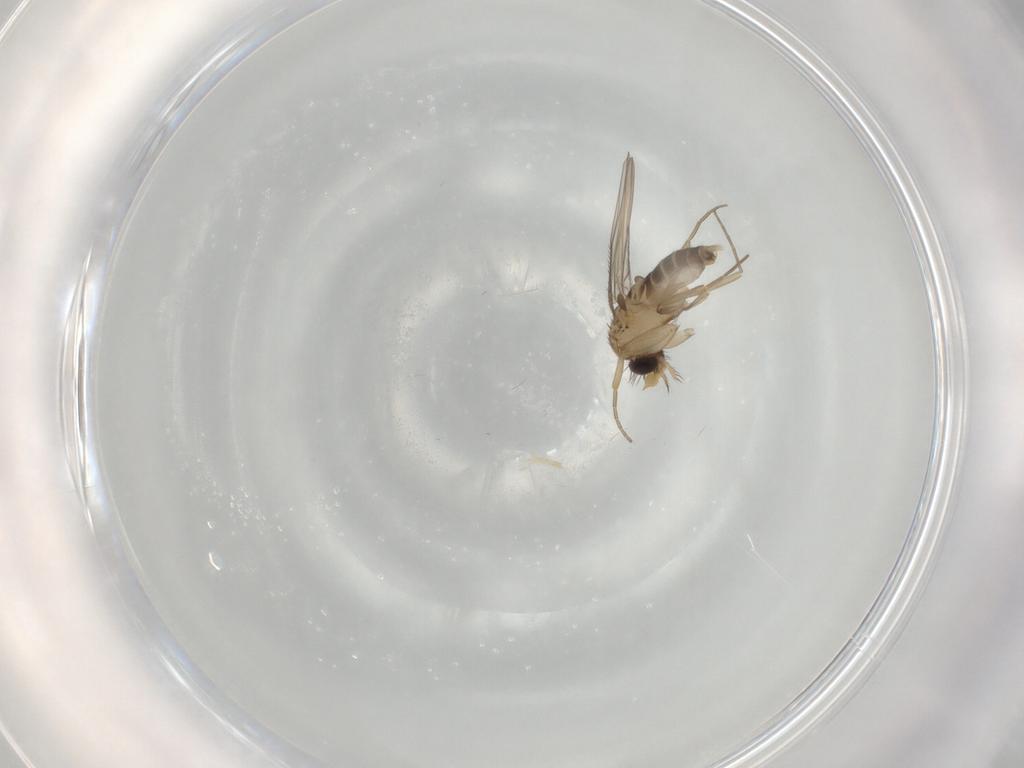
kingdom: Animalia
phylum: Arthropoda
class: Insecta
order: Diptera
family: Phoridae
